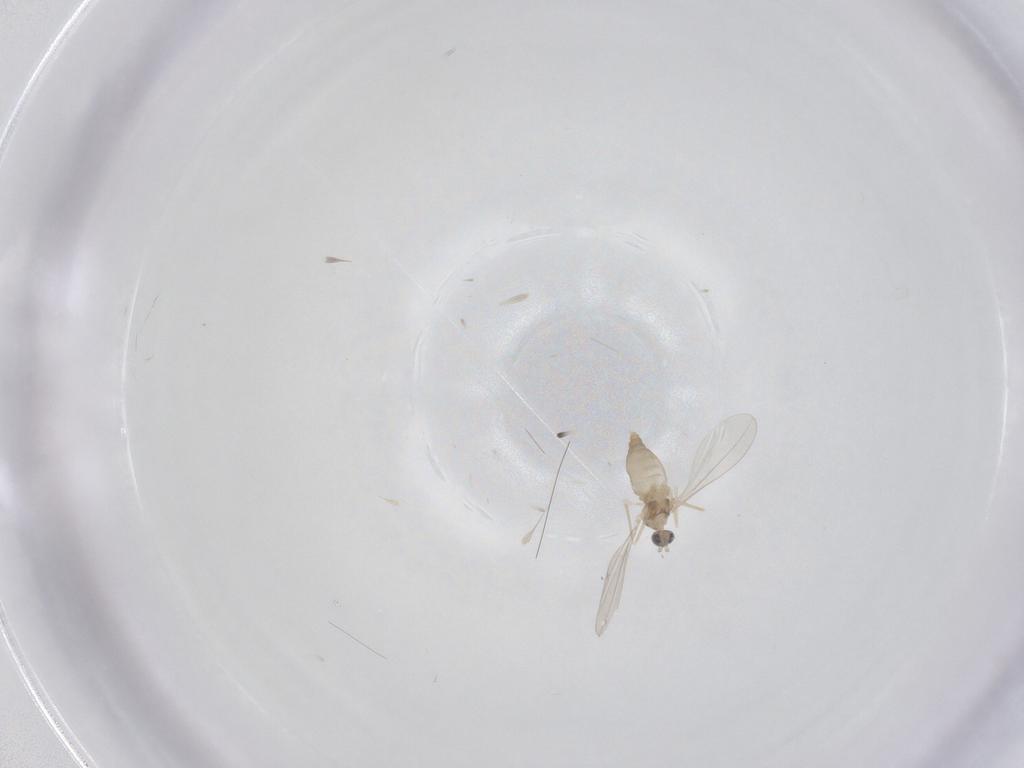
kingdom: Animalia
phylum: Arthropoda
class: Insecta
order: Diptera
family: Cecidomyiidae
